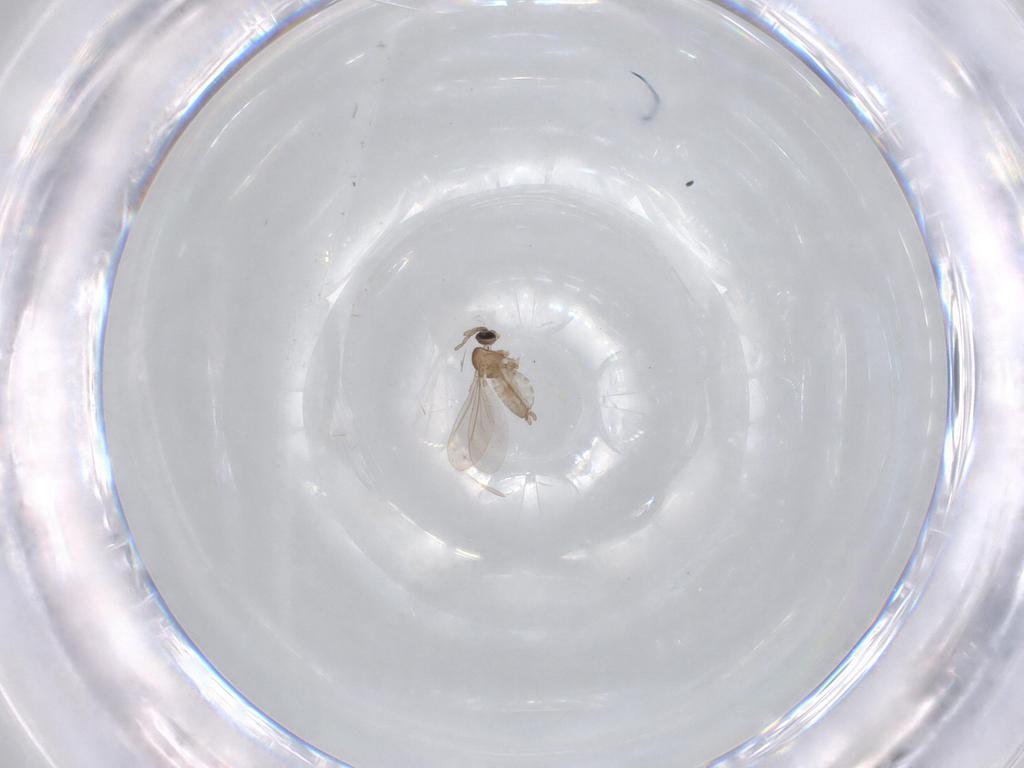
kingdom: Animalia
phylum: Arthropoda
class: Insecta
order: Diptera
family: Cecidomyiidae
